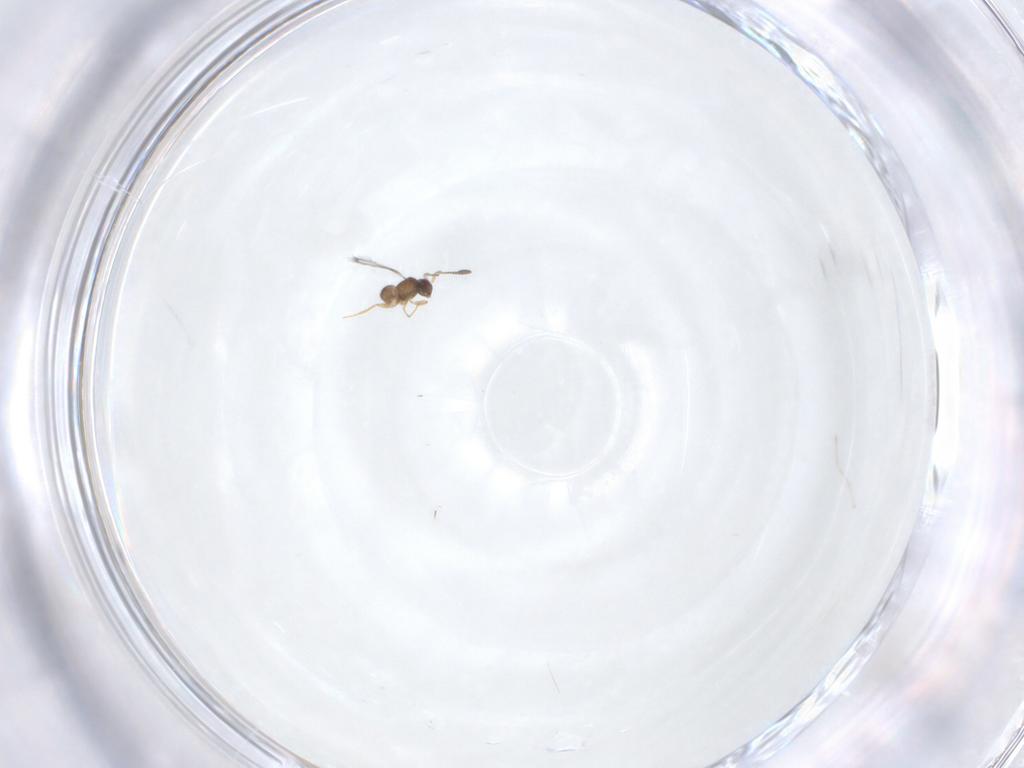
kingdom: Animalia
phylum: Arthropoda
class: Insecta
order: Hymenoptera
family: Mymaridae
